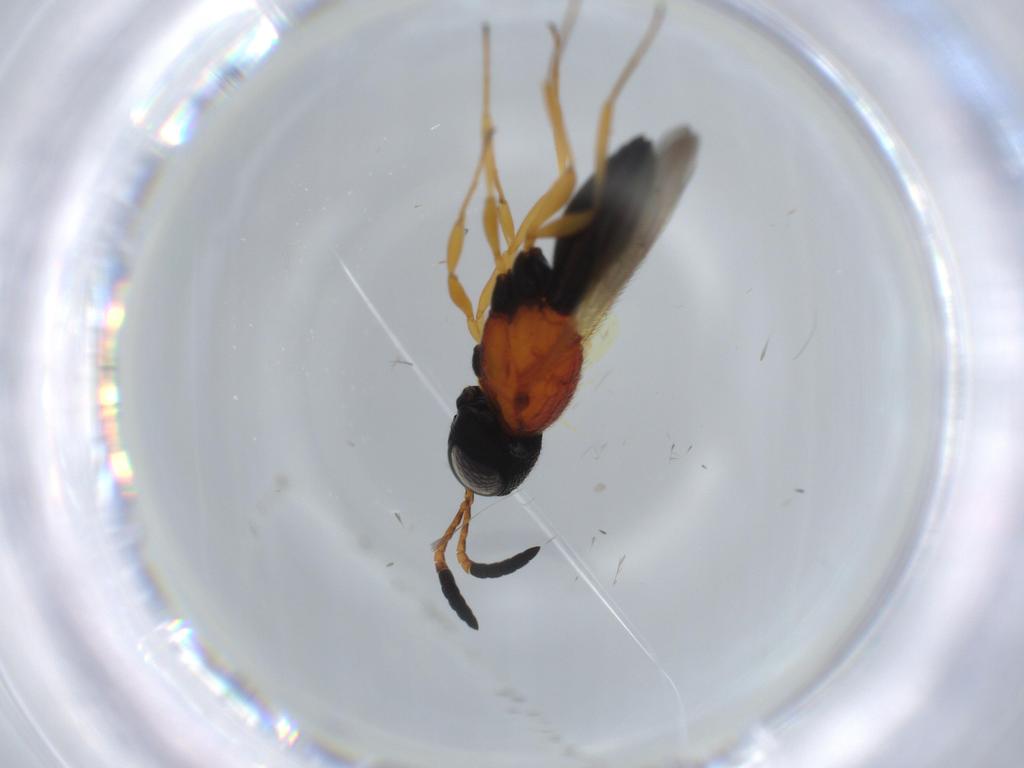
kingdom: Animalia
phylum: Arthropoda
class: Insecta
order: Hymenoptera
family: Scelionidae
